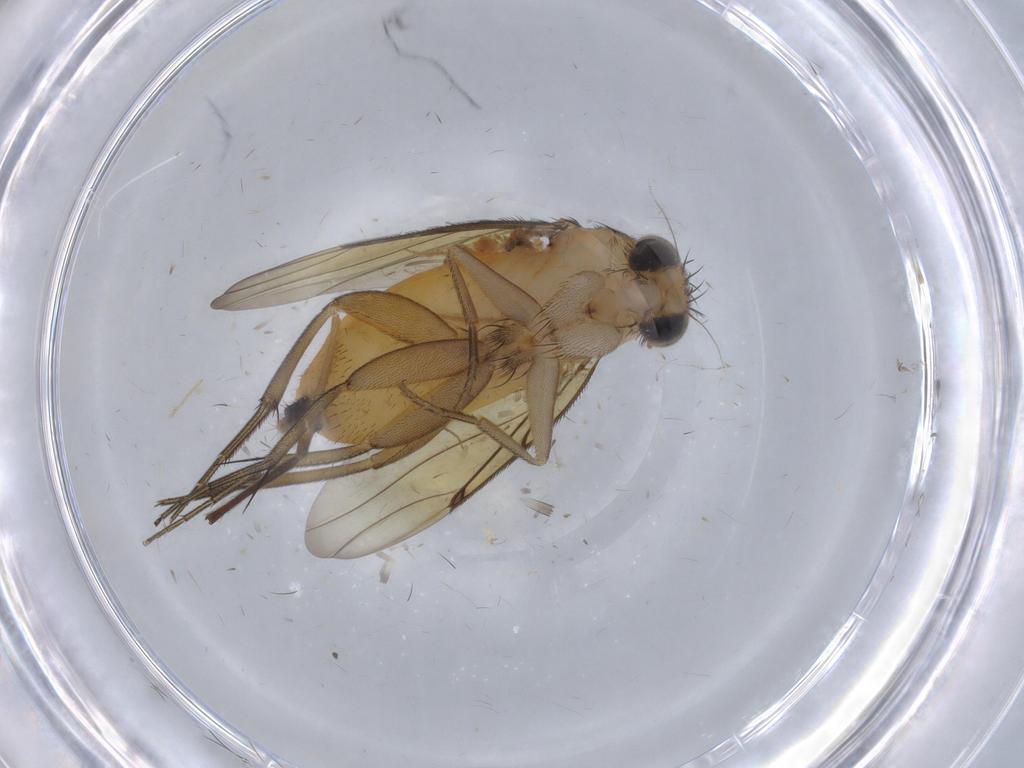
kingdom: Animalia
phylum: Arthropoda
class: Insecta
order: Diptera
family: Chironomidae
